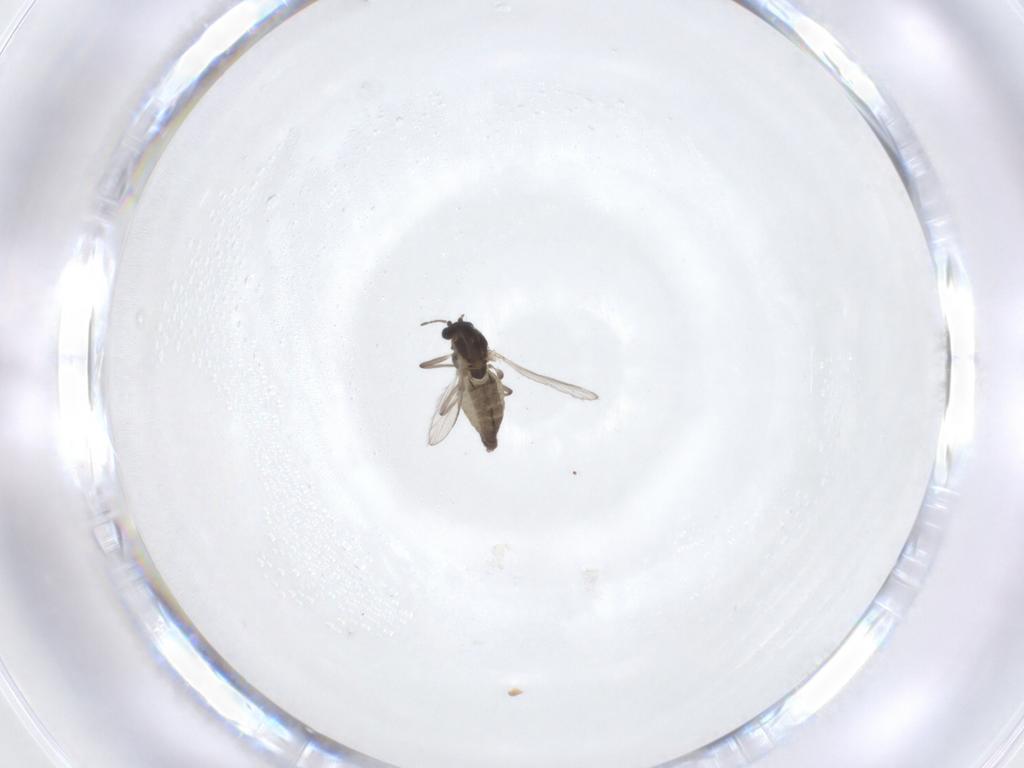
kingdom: Animalia
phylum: Arthropoda
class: Insecta
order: Diptera
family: Chironomidae
